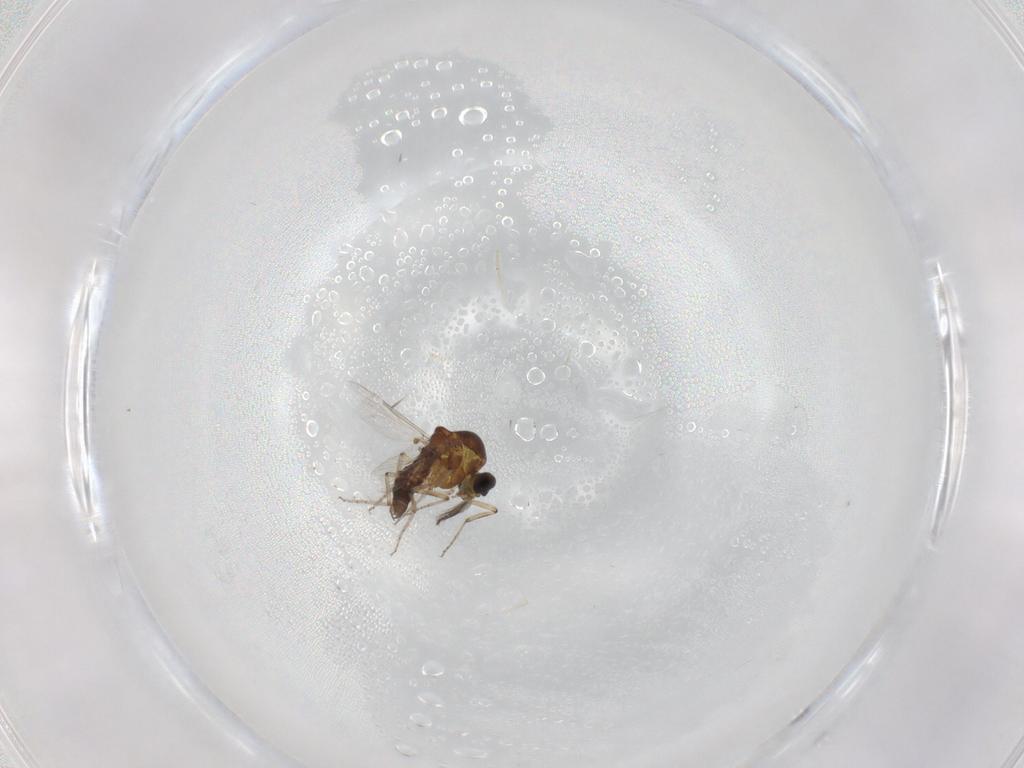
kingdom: Animalia
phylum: Arthropoda
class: Insecta
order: Diptera
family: Ceratopogonidae
